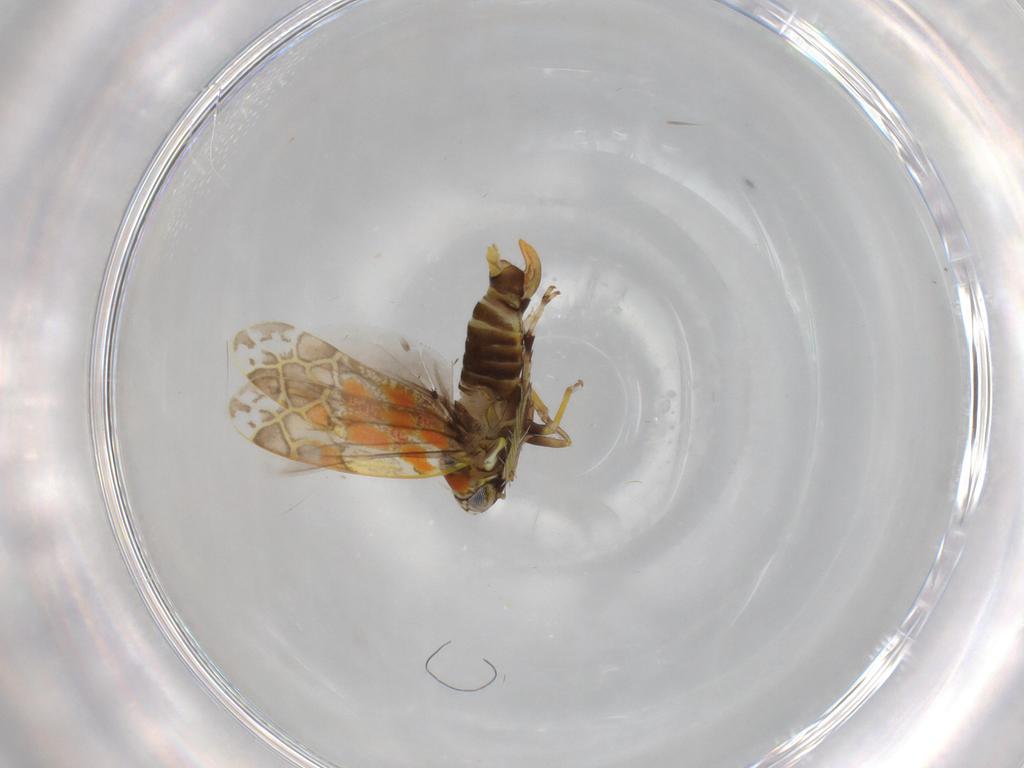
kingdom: Animalia
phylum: Arthropoda
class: Insecta
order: Hemiptera
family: Cicadellidae
